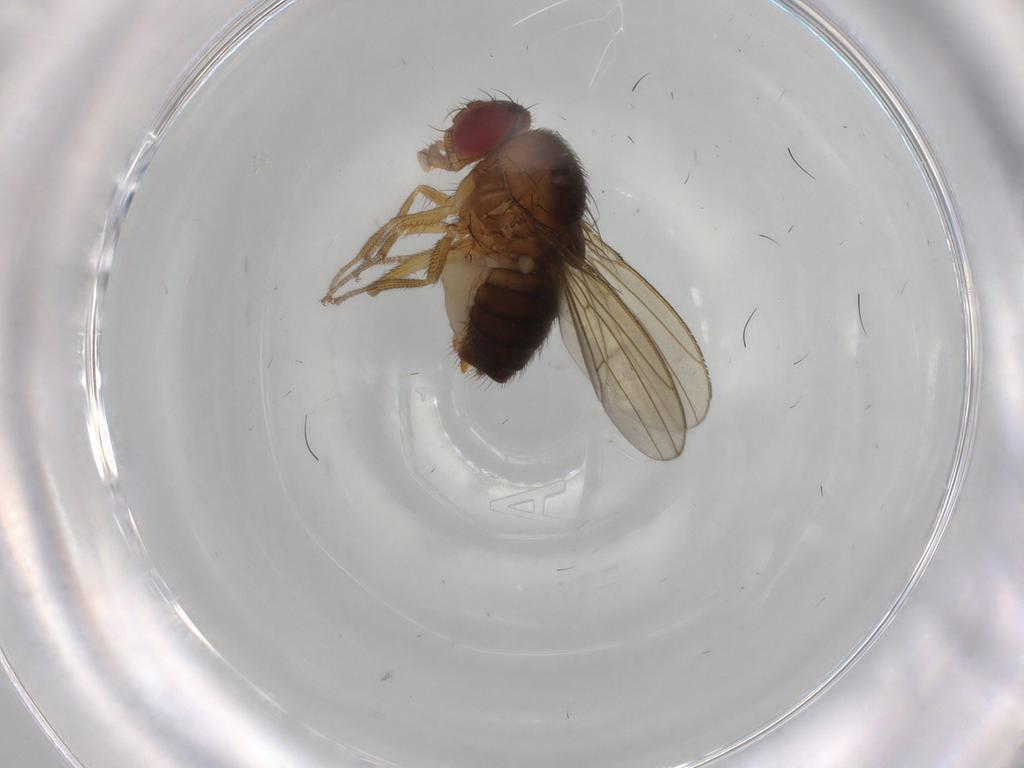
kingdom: Animalia
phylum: Arthropoda
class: Insecta
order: Diptera
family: Drosophilidae
